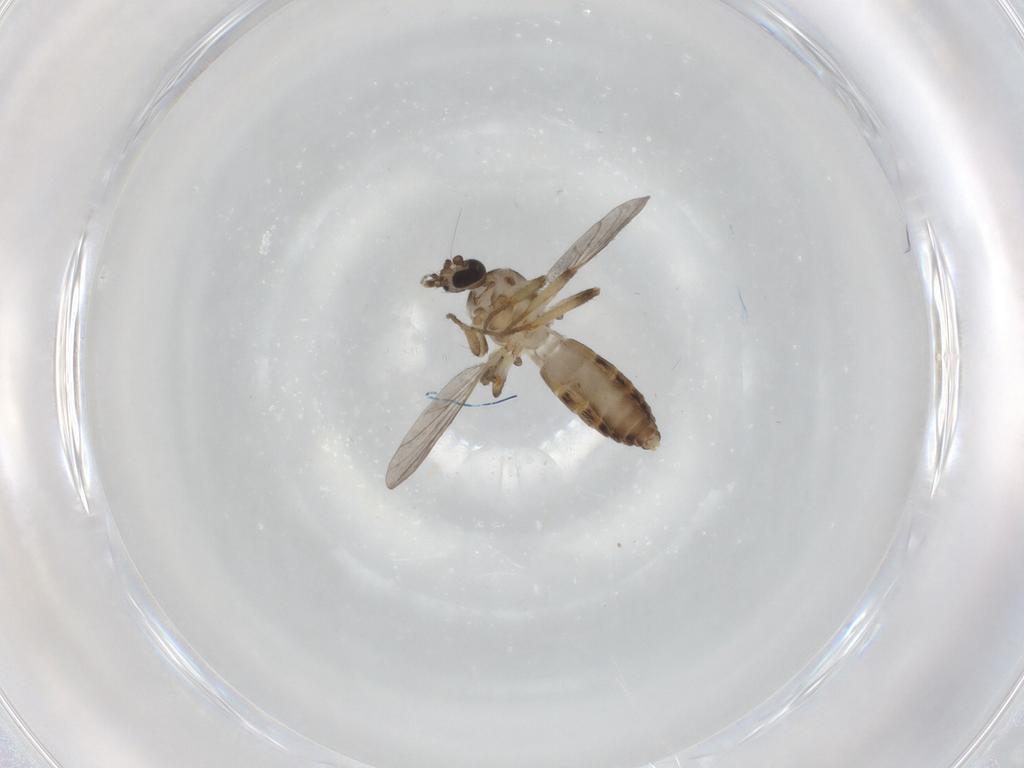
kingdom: Animalia
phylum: Arthropoda
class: Insecta
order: Diptera
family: Ceratopogonidae
